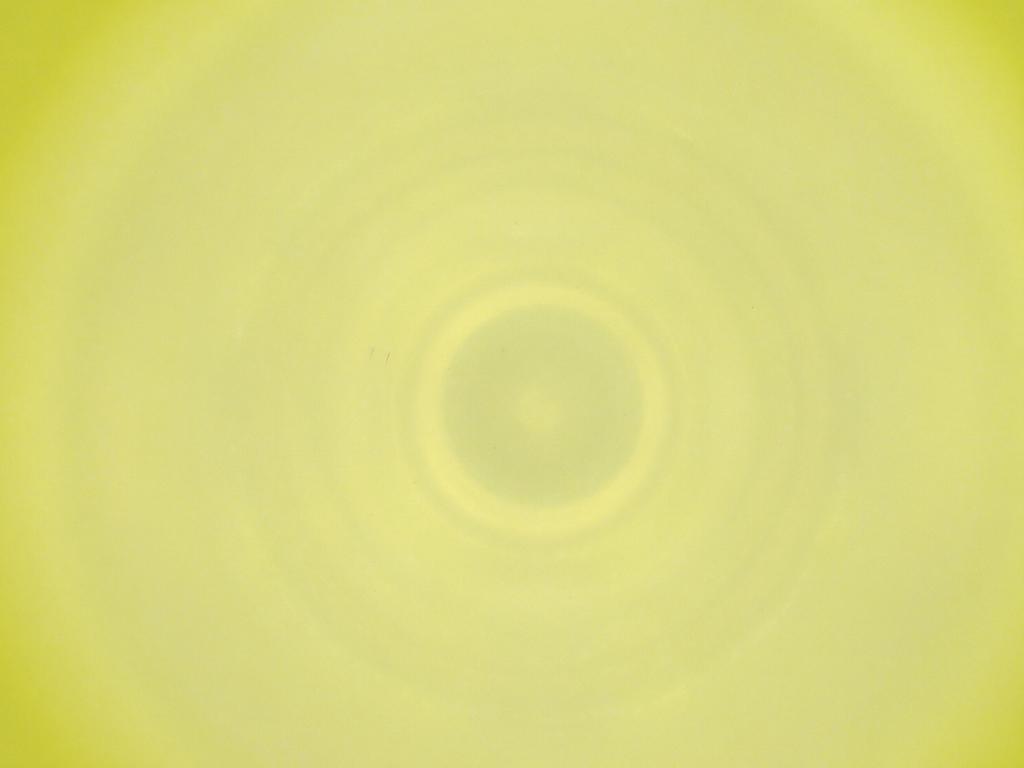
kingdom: Animalia
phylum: Arthropoda
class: Insecta
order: Diptera
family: Cecidomyiidae
